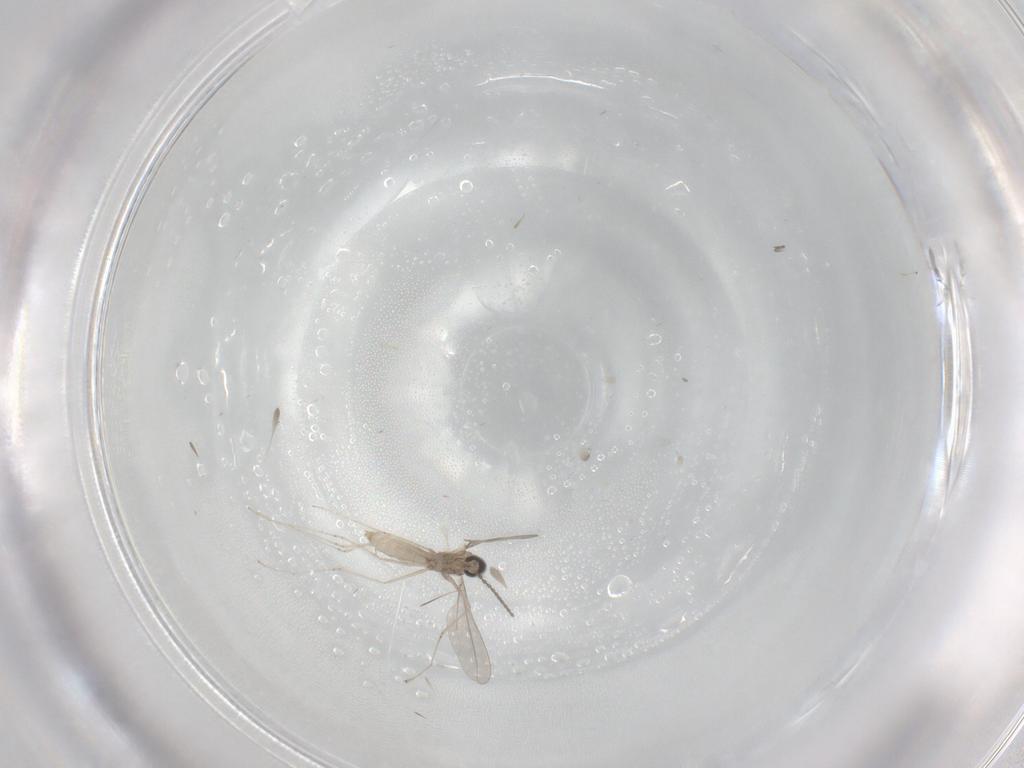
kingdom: Animalia
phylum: Arthropoda
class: Insecta
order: Diptera
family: Cecidomyiidae
